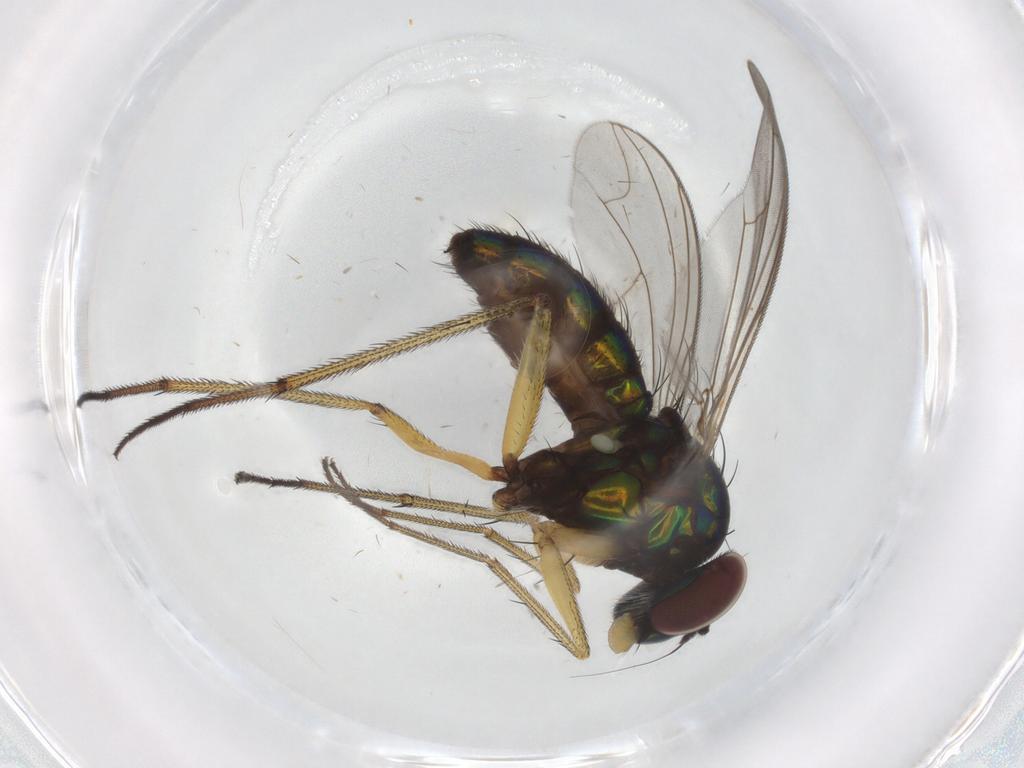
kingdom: Animalia
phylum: Arthropoda
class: Insecta
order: Diptera
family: Dolichopodidae
